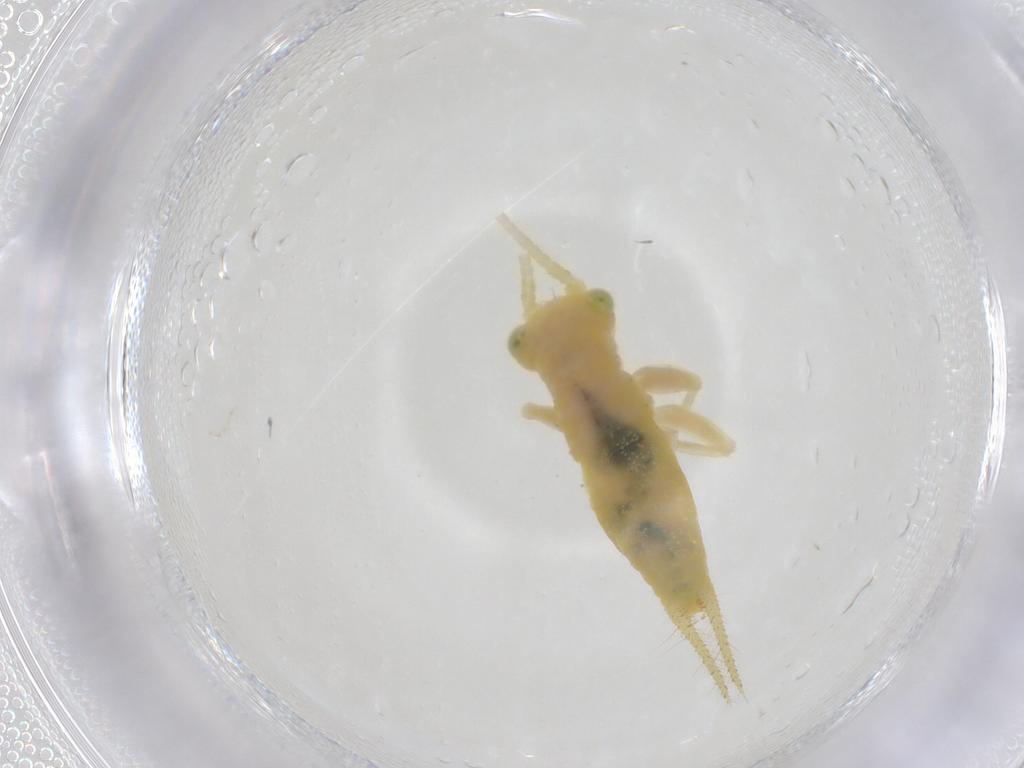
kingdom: Animalia
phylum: Arthropoda
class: Insecta
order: Orthoptera
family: Trigonidiidae
